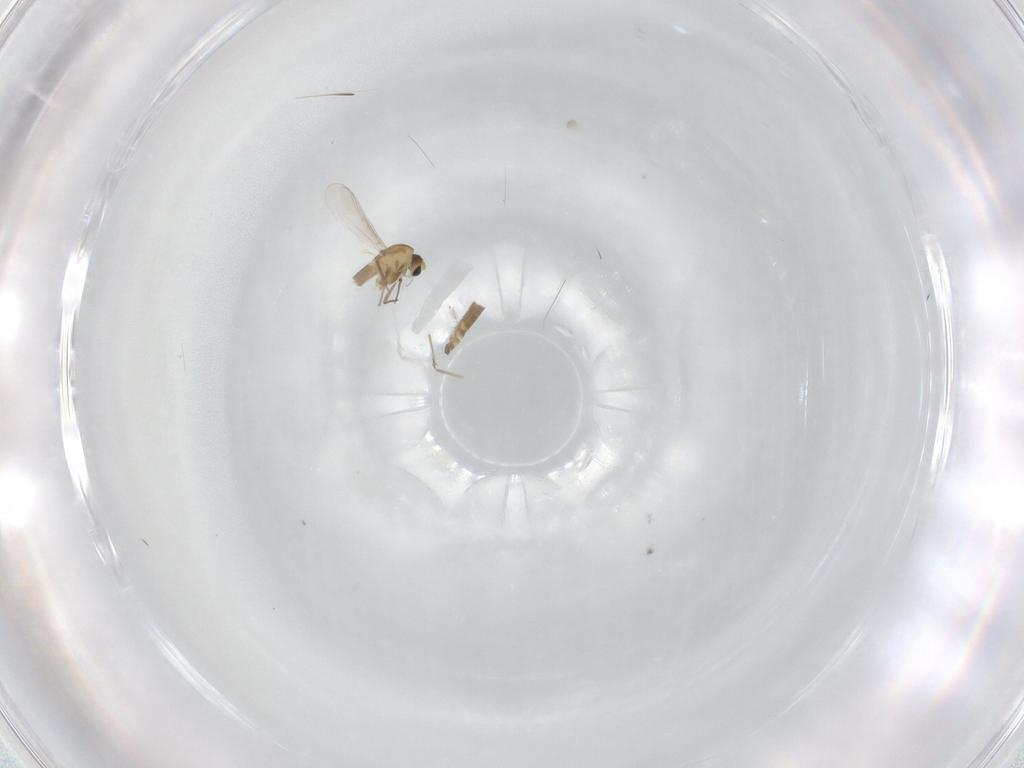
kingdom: Animalia
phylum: Arthropoda
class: Insecta
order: Diptera
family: Chironomidae
